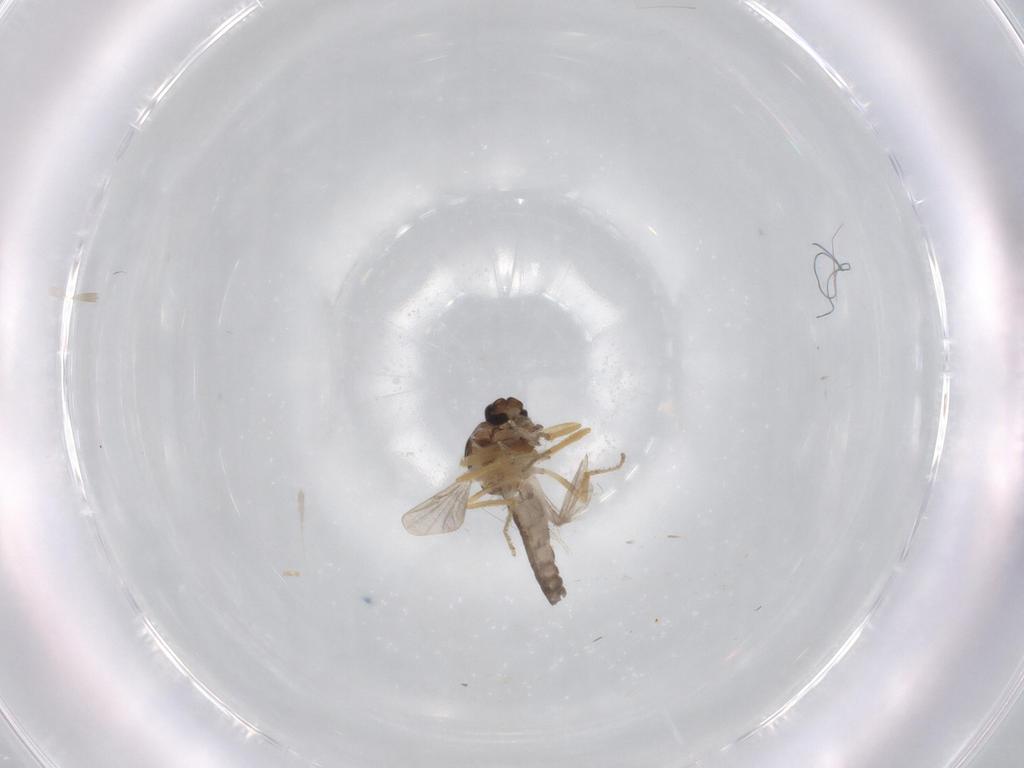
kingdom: Animalia
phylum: Arthropoda
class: Insecta
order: Diptera
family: Ceratopogonidae
